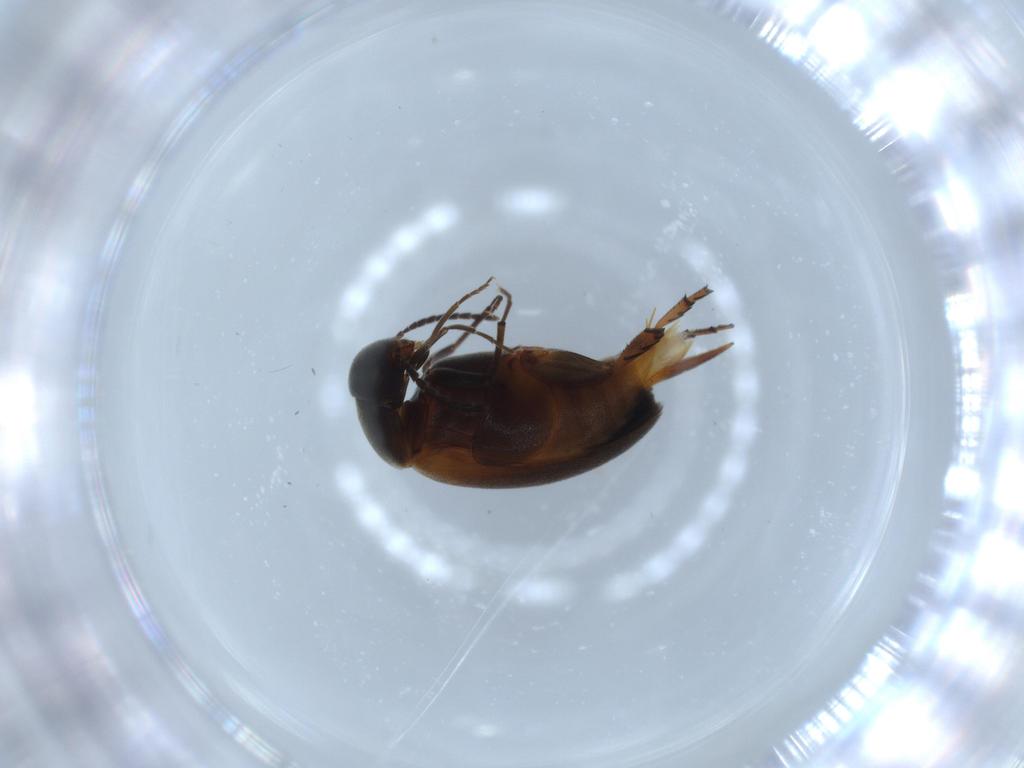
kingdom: Animalia
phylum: Arthropoda
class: Insecta
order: Coleoptera
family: Mordellidae
